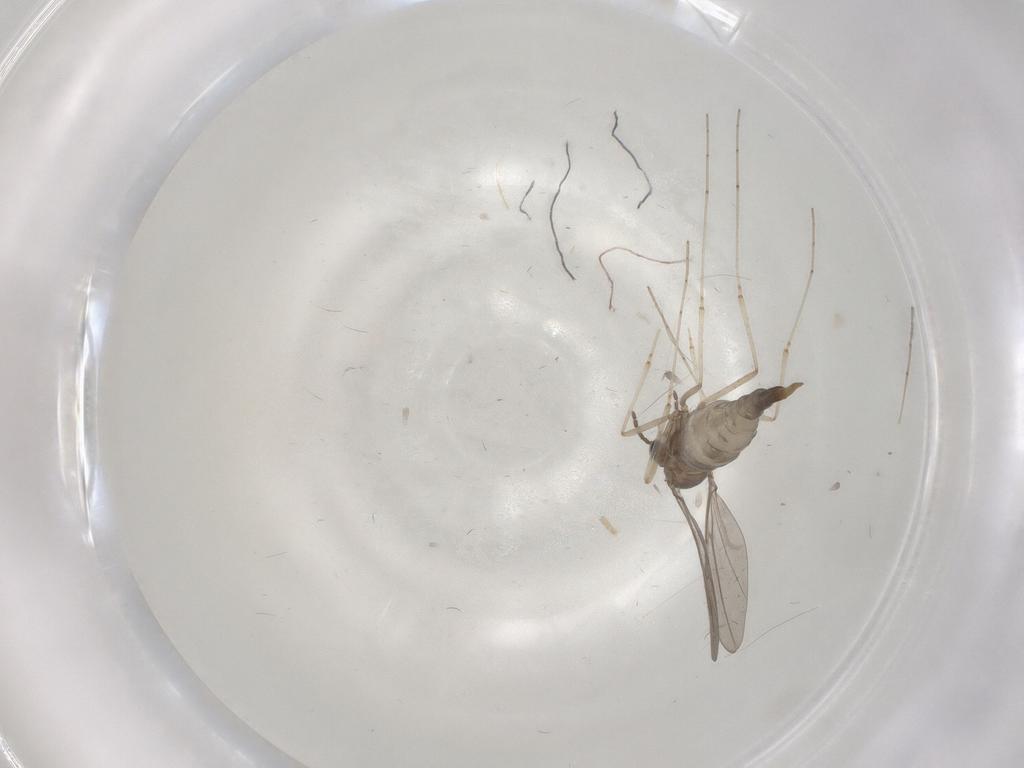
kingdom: Animalia
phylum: Arthropoda
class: Insecta
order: Diptera
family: Cecidomyiidae
